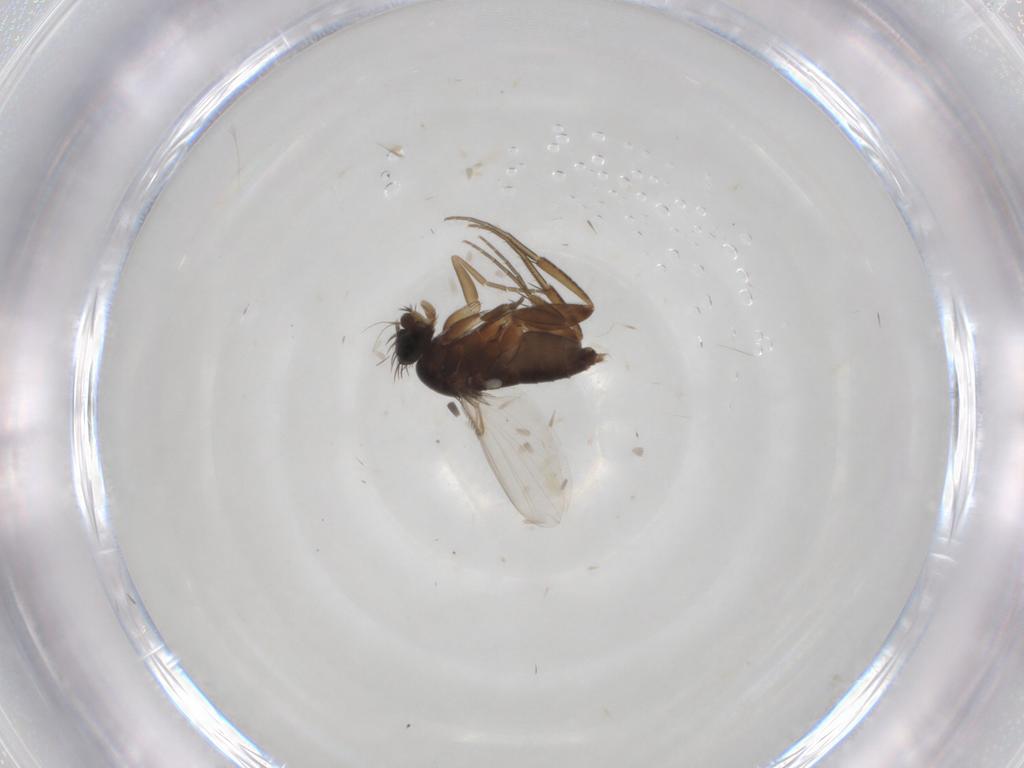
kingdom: Animalia
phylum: Arthropoda
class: Insecta
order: Diptera
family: Phoridae
